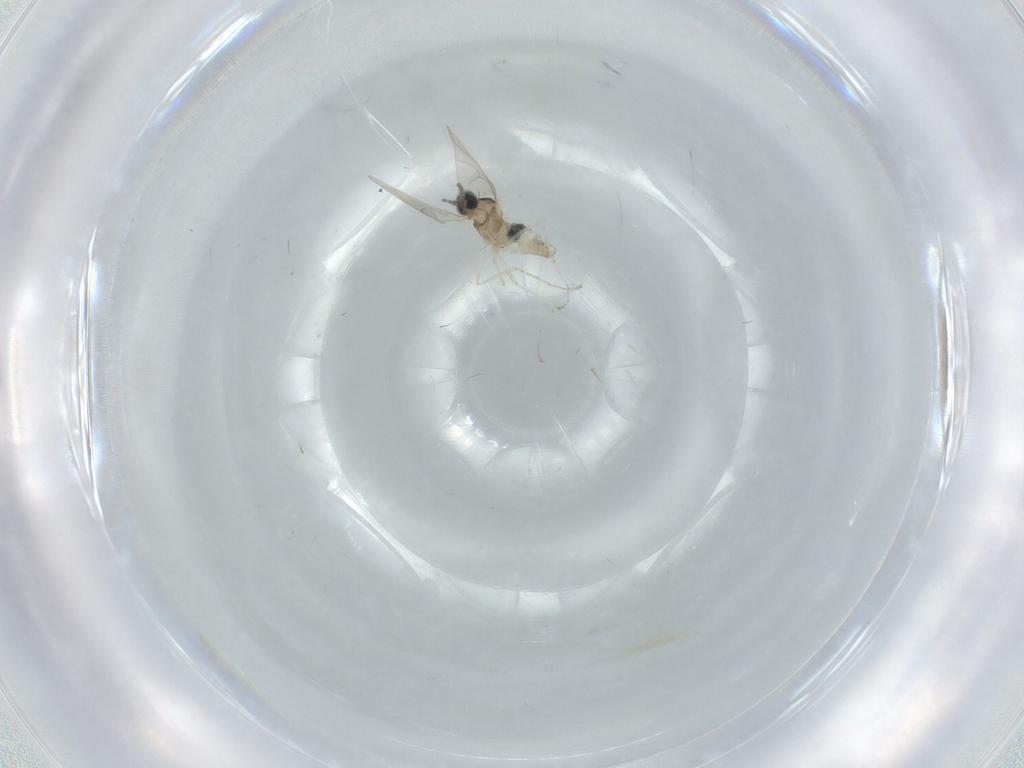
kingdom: Animalia
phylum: Arthropoda
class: Insecta
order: Diptera
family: Cecidomyiidae
